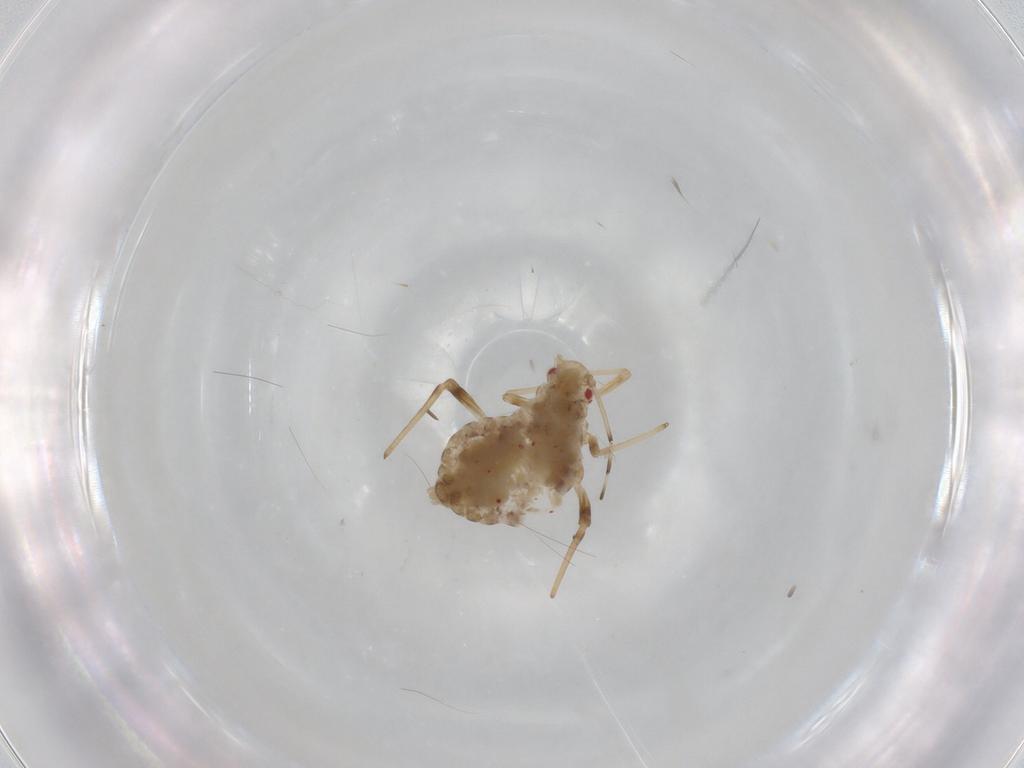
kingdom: Animalia
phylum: Arthropoda
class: Insecta
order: Hemiptera
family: Aphididae
